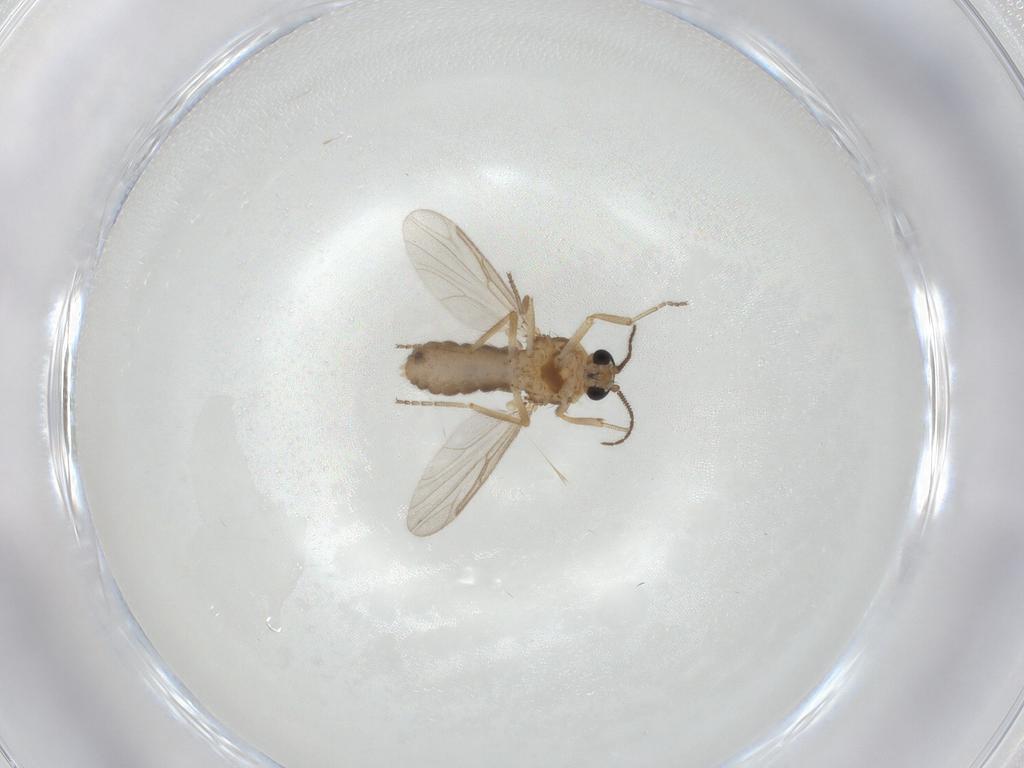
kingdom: Animalia
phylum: Arthropoda
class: Insecta
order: Diptera
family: Ceratopogonidae
